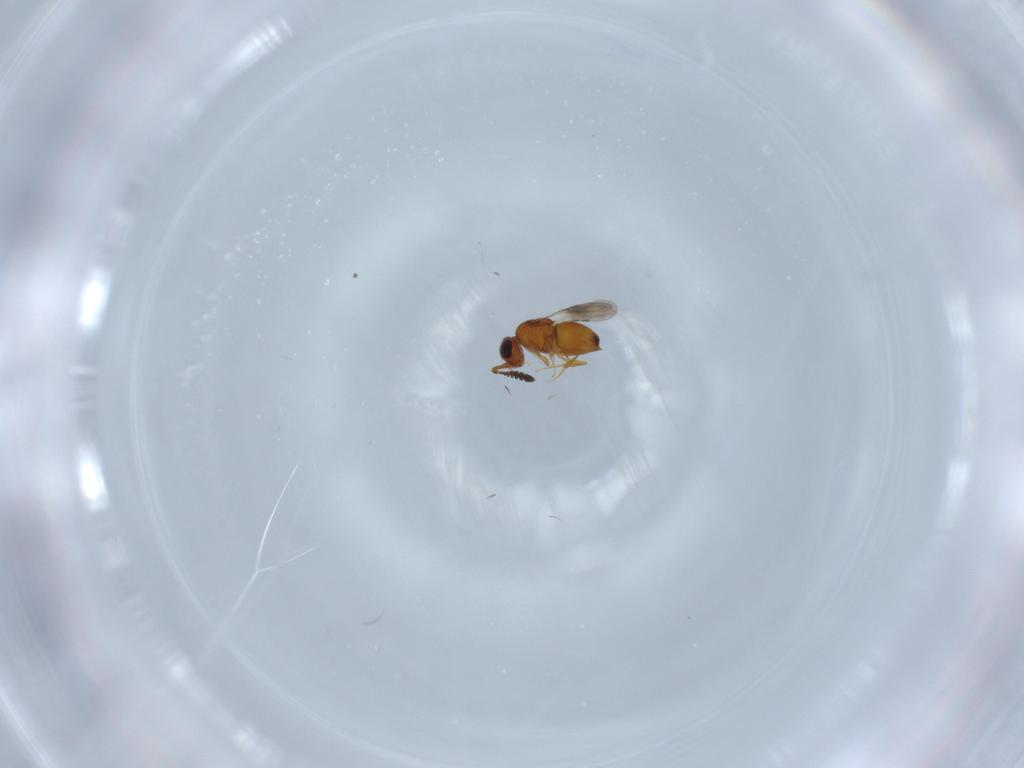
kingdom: Animalia
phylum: Arthropoda
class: Insecta
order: Hymenoptera
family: Ceraphronidae
